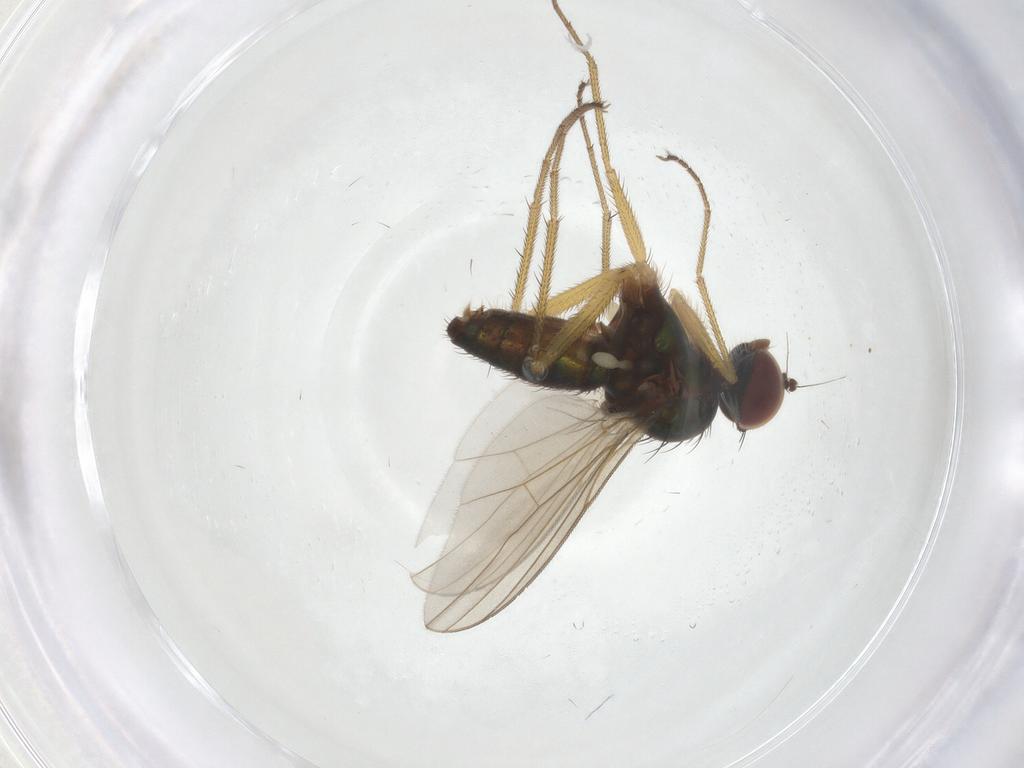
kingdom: Animalia
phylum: Arthropoda
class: Insecta
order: Diptera
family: Dolichopodidae
